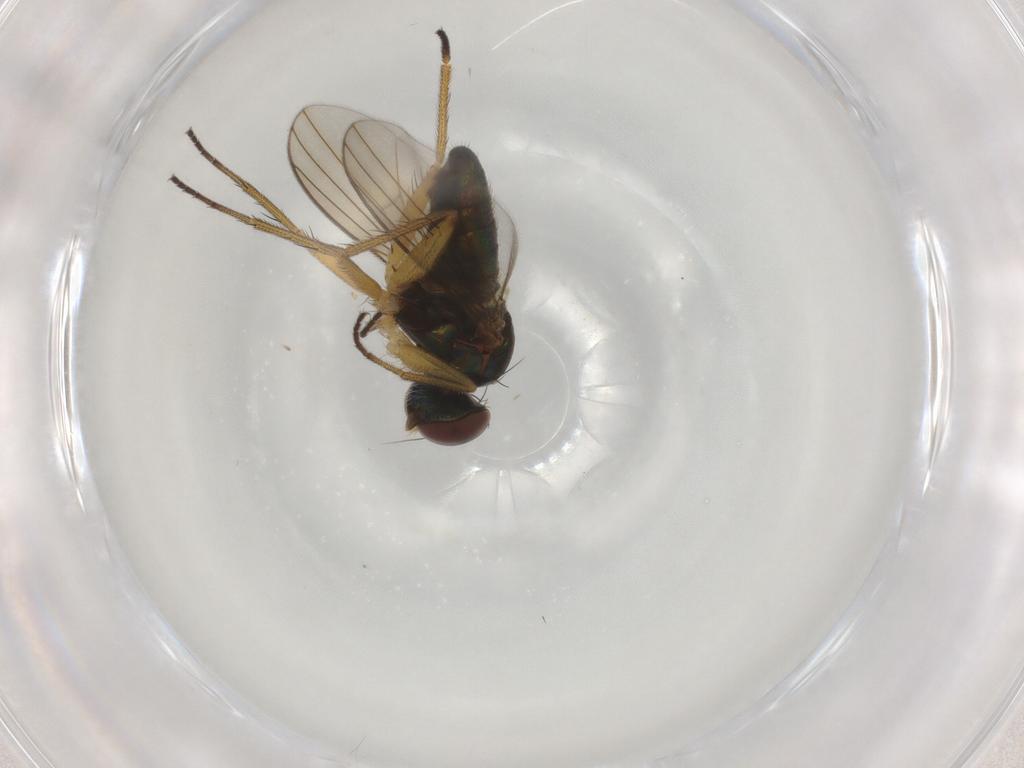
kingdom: Animalia
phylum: Arthropoda
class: Insecta
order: Diptera
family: Dolichopodidae
